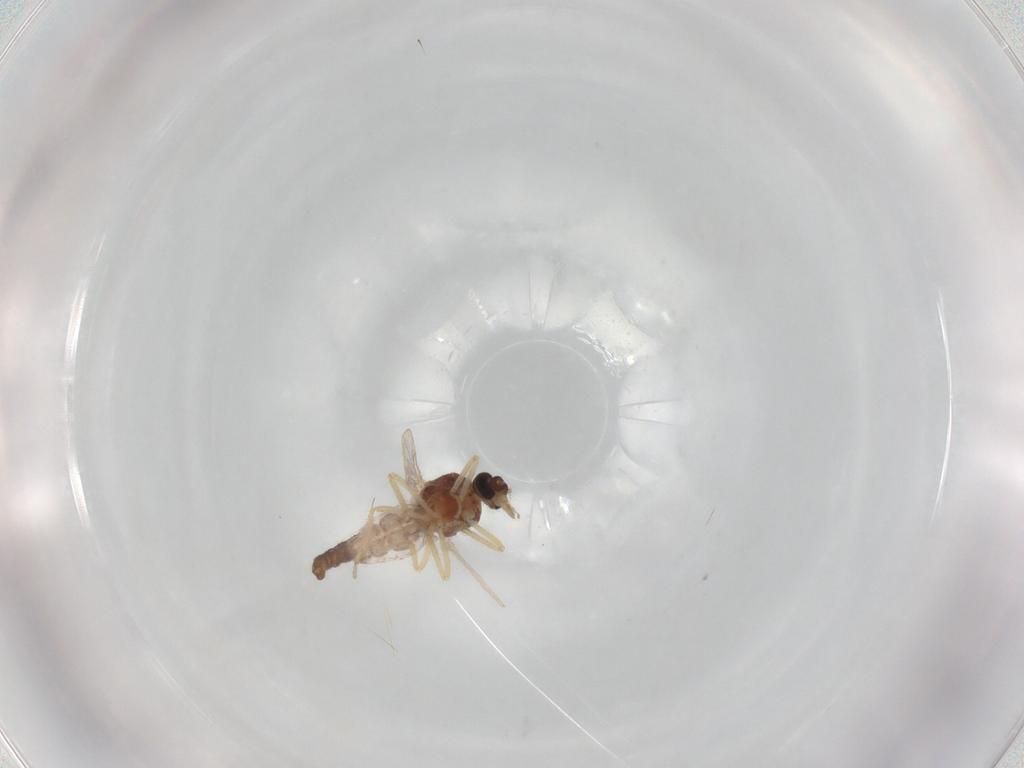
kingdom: Animalia
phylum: Arthropoda
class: Insecta
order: Diptera
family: Ceratopogonidae
